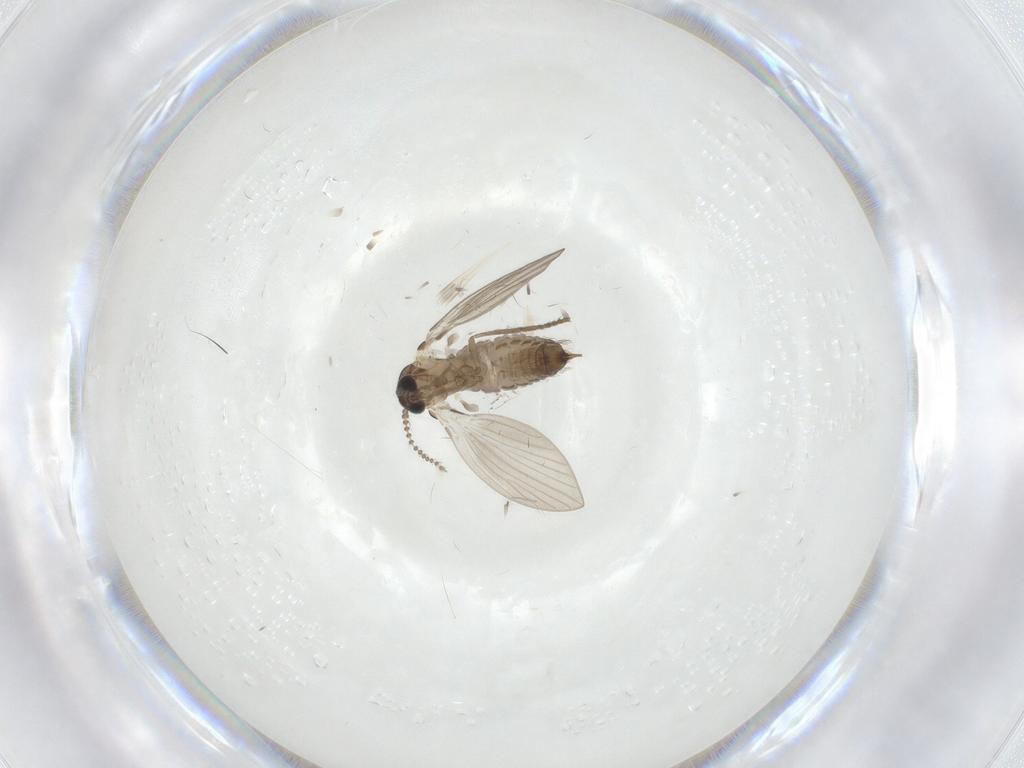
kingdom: Animalia
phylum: Arthropoda
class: Insecta
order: Diptera
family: Psychodidae
